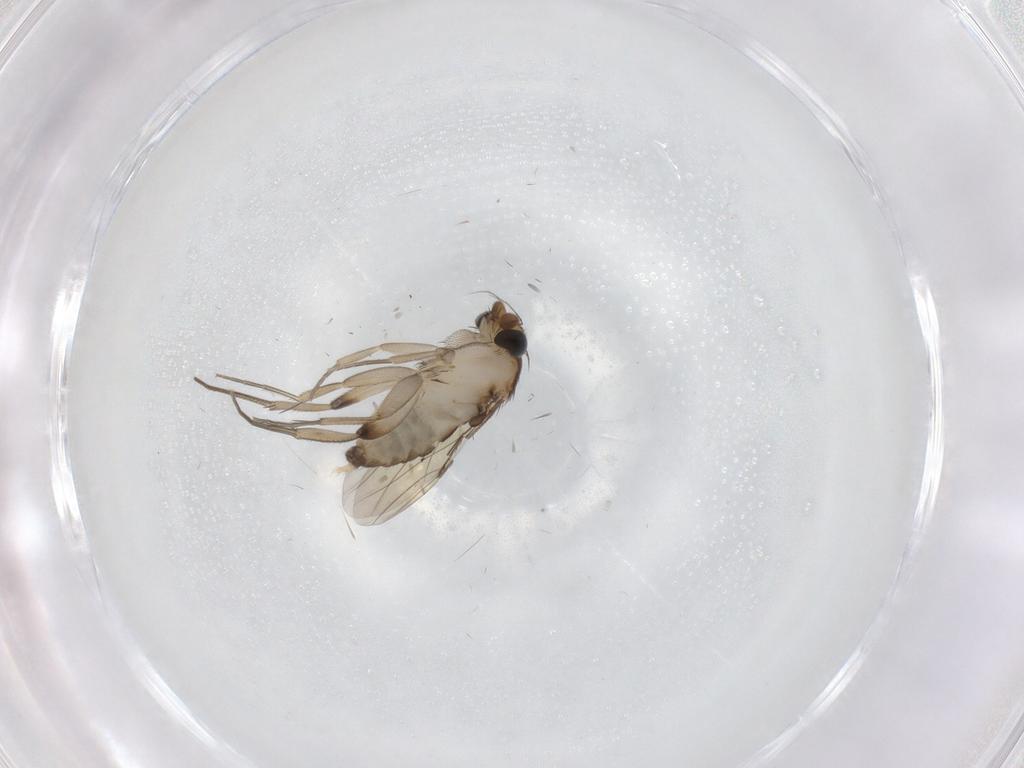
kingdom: Animalia
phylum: Arthropoda
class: Insecta
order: Diptera
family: Phoridae
